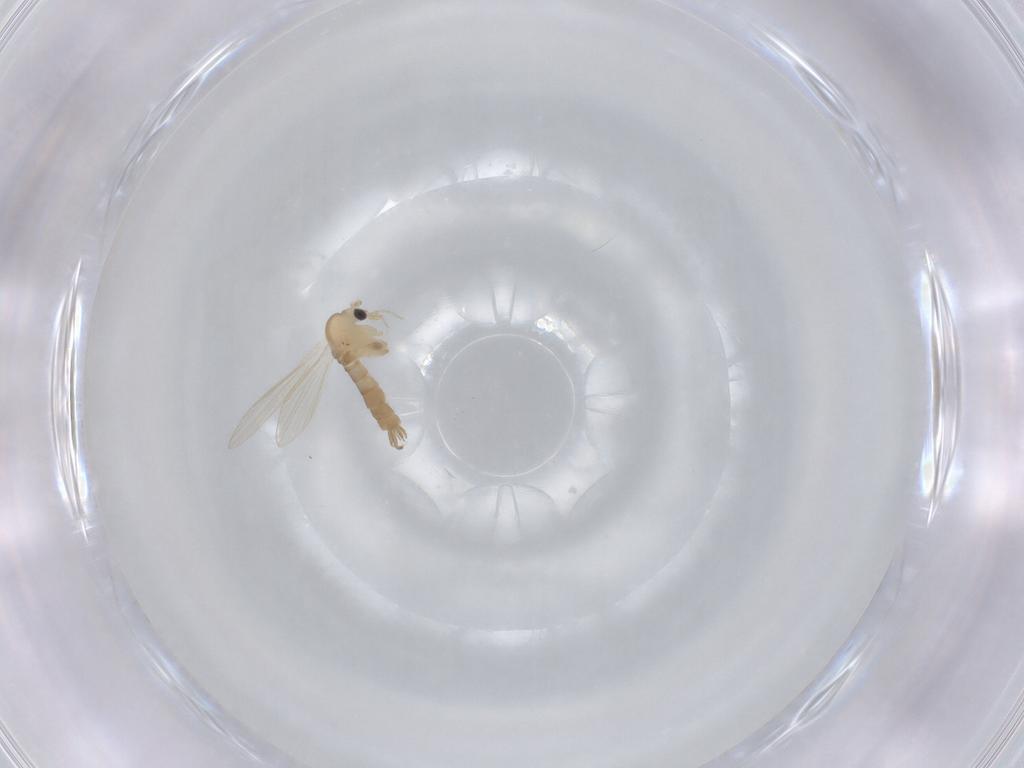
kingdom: Animalia
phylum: Arthropoda
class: Insecta
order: Diptera
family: Psychodidae
